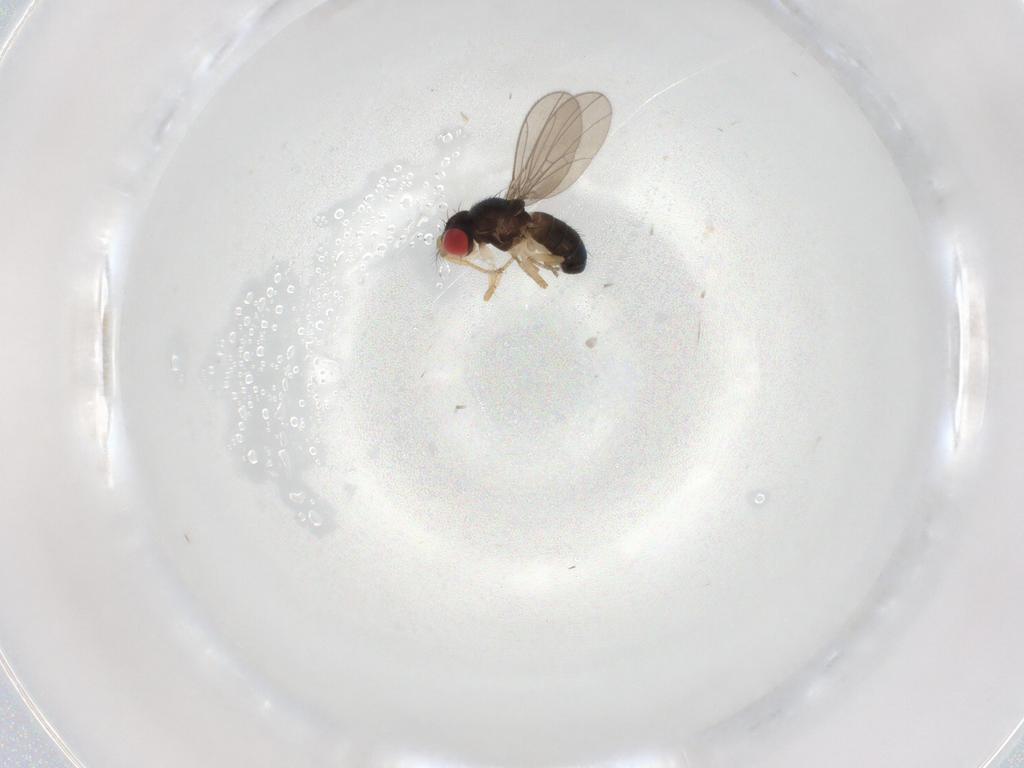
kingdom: Animalia
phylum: Arthropoda
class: Insecta
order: Diptera
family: Drosophilidae
